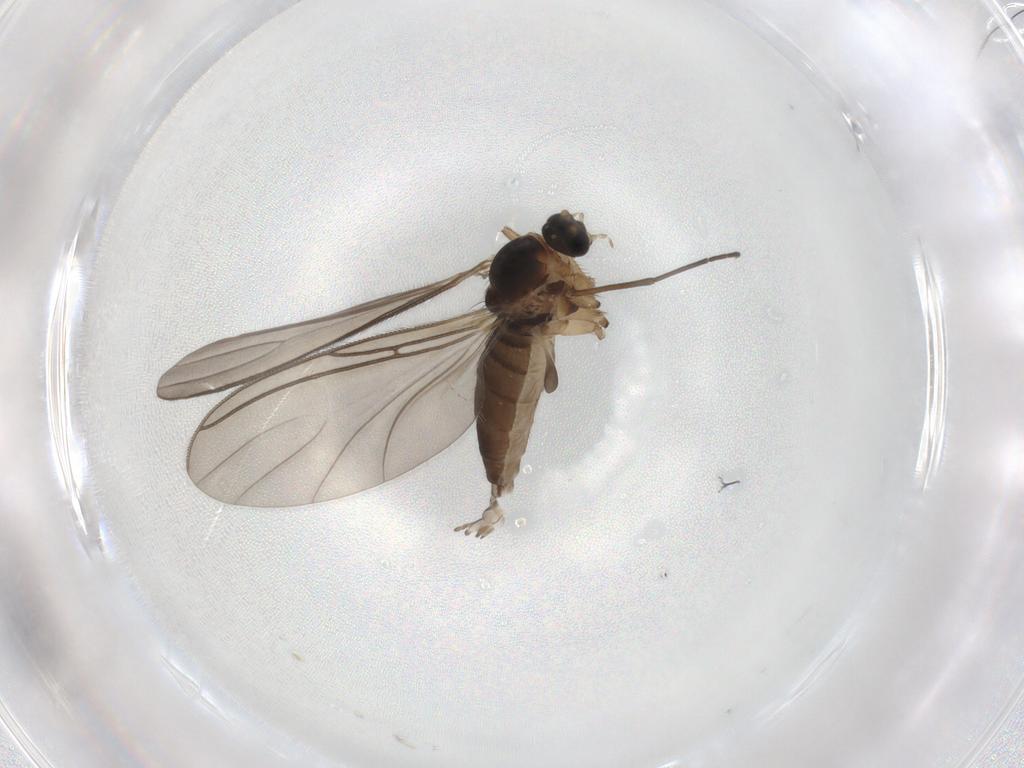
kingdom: Animalia
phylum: Arthropoda
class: Insecta
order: Diptera
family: Sciaridae
